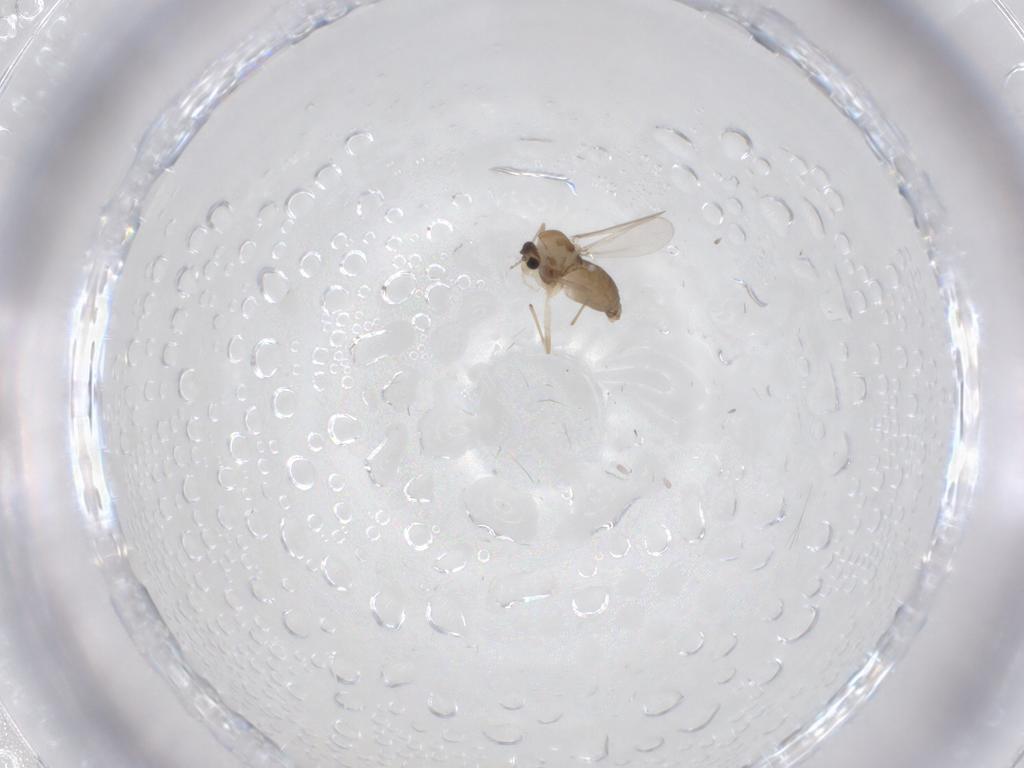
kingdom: Animalia
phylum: Arthropoda
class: Insecta
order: Diptera
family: Chironomidae
